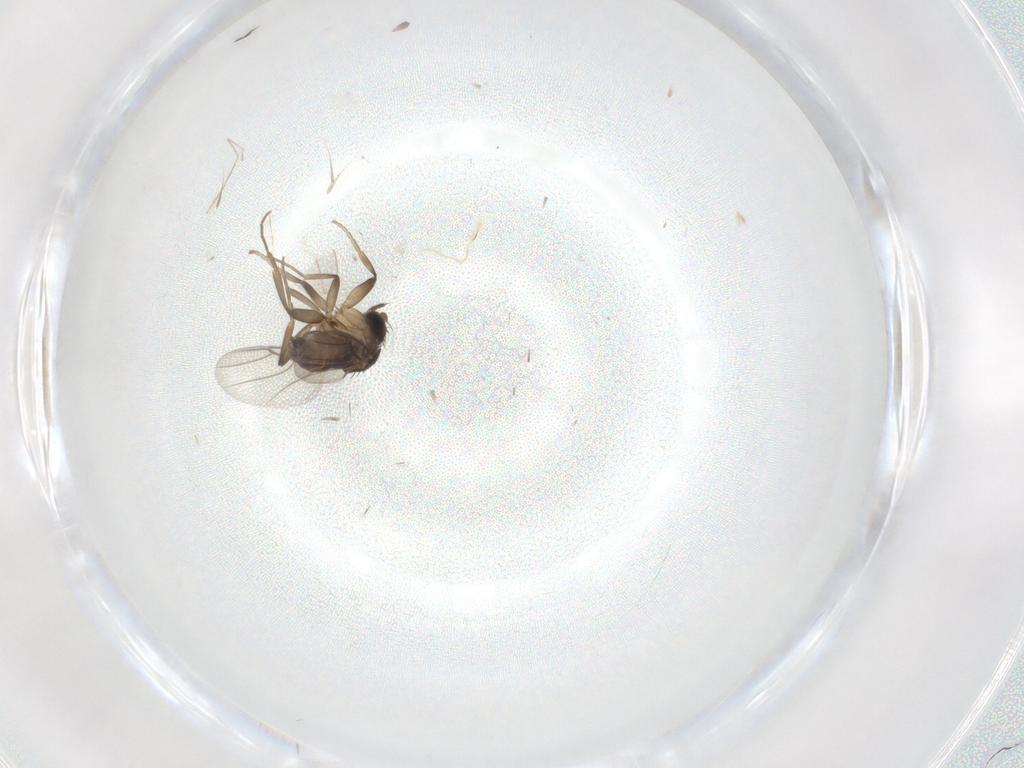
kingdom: Animalia
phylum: Arthropoda
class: Insecta
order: Diptera
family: Phoridae
